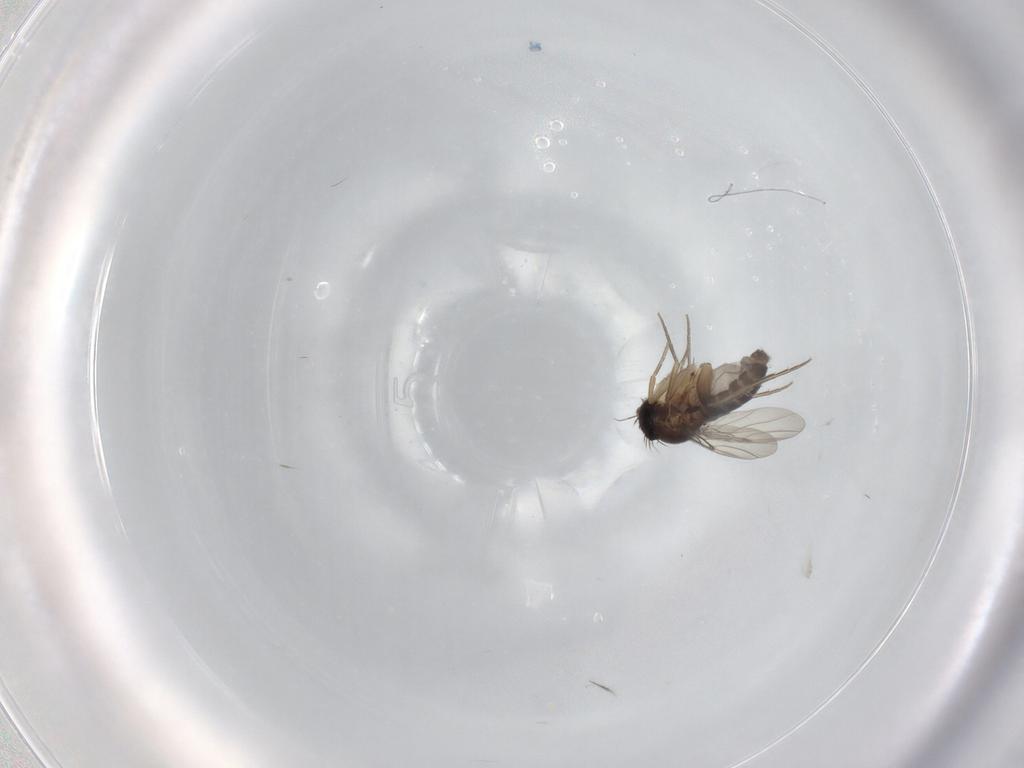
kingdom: Animalia
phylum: Arthropoda
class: Insecta
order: Diptera
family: Phoridae
